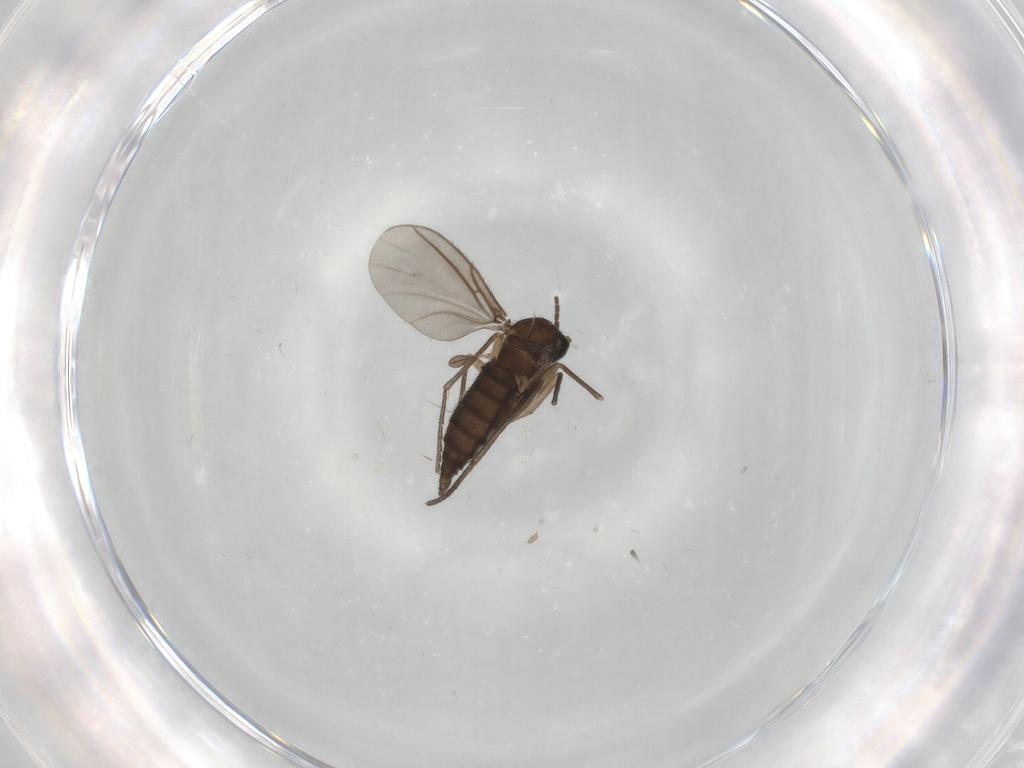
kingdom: Animalia
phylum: Arthropoda
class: Insecta
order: Diptera
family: Sciaridae
